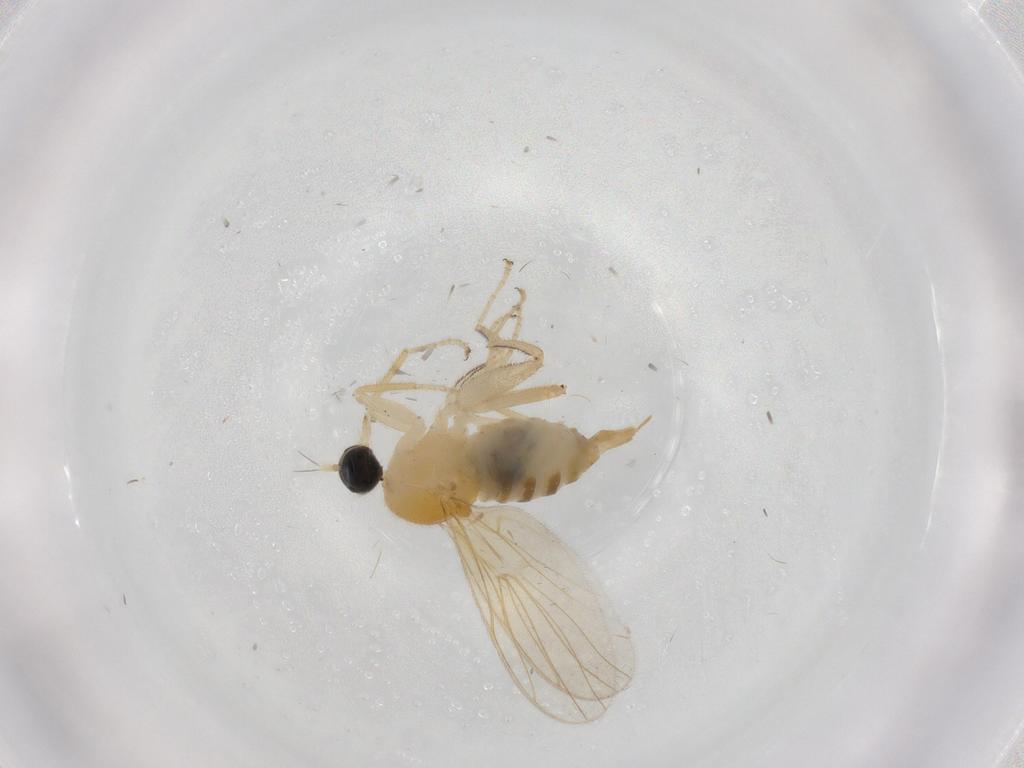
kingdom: Animalia
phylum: Arthropoda
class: Insecta
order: Diptera
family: Hybotidae
